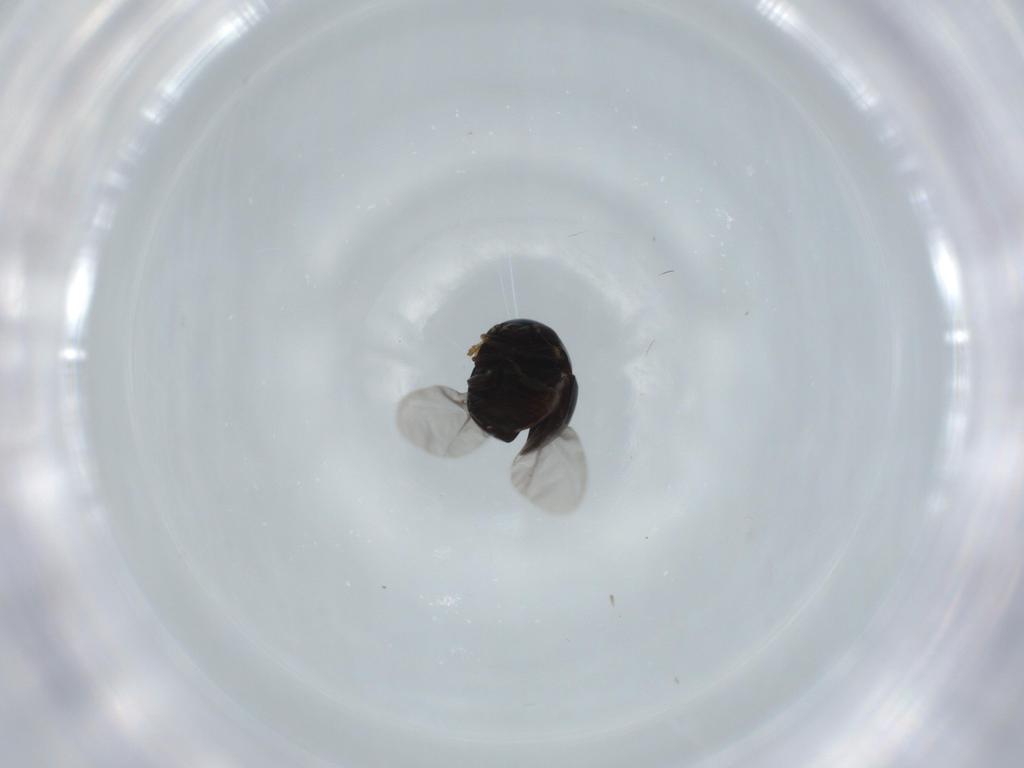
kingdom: Animalia
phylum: Arthropoda
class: Insecta
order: Coleoptera
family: Cybocephalidae
